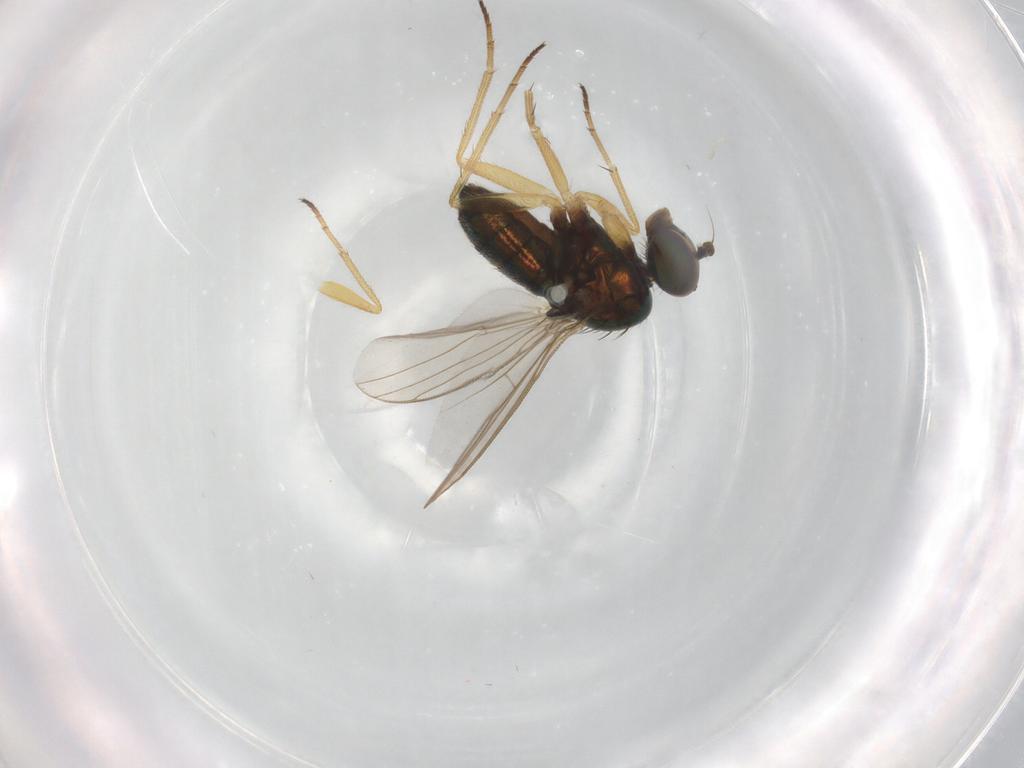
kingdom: Animalia
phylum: Arthropoda
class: Insecta
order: Diptera
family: Dolichopodidae
